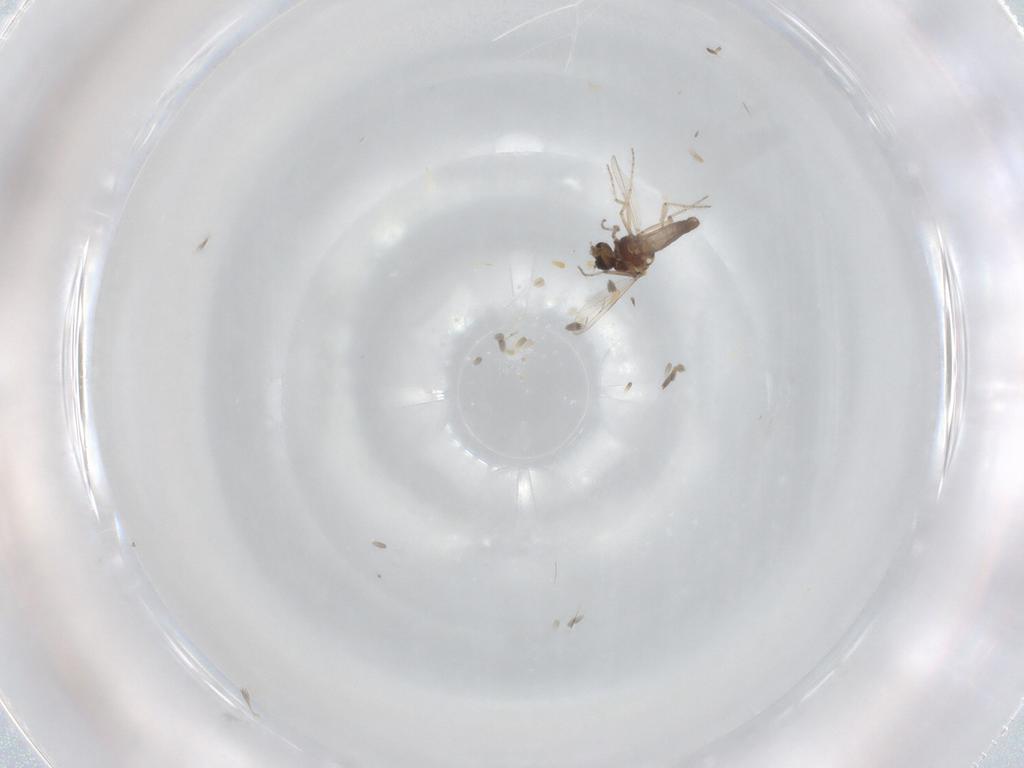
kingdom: Animalia
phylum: Arthropoda
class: Insecta
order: Diptera
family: Ceratopogonidae
